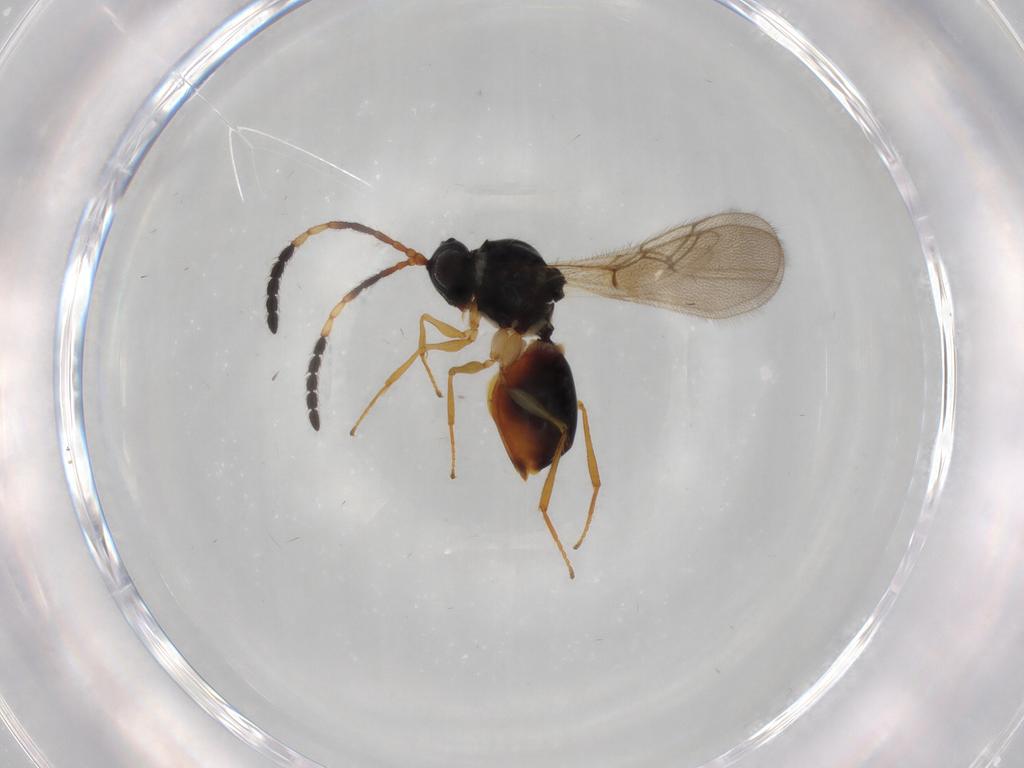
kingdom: Animalia
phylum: Arthropoda
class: Insecta
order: Hymenoptera
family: Figitidae
